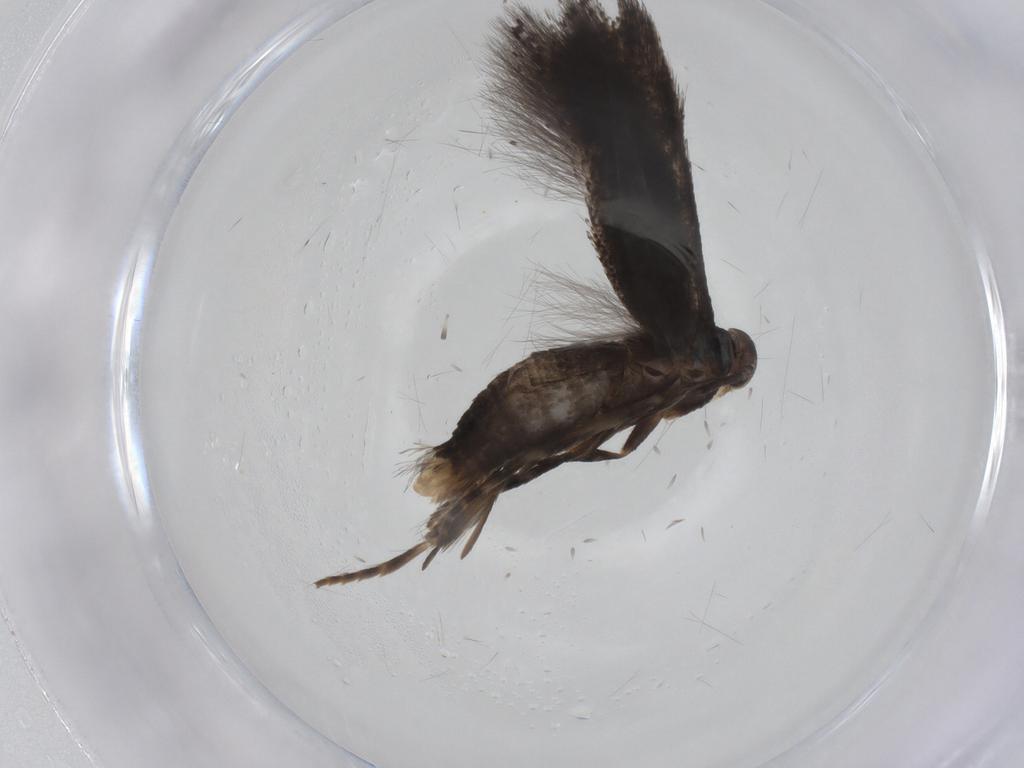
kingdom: Animalia
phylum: Arthropoda
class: Insecta
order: Lepidoptera
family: Elachistidae
